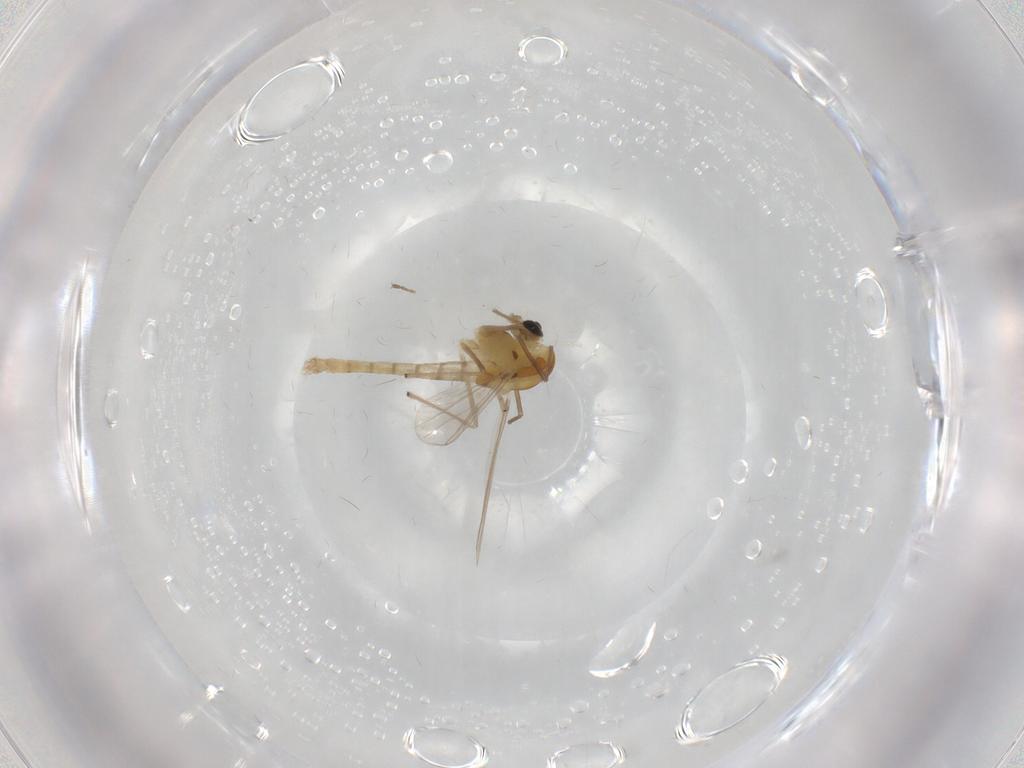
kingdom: Animalia
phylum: Arthropoda
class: Insecta
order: Diptera
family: Chironomidae
